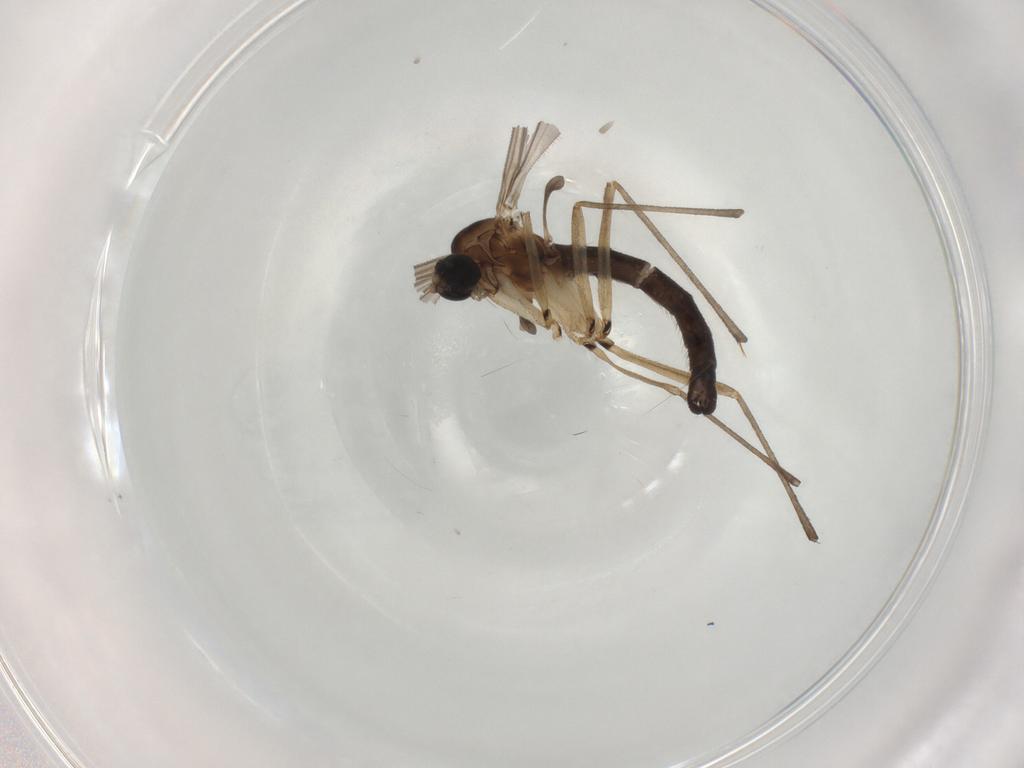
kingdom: Animalia
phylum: Arthropoda
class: Insecta
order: Diptera
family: Sciaridae
